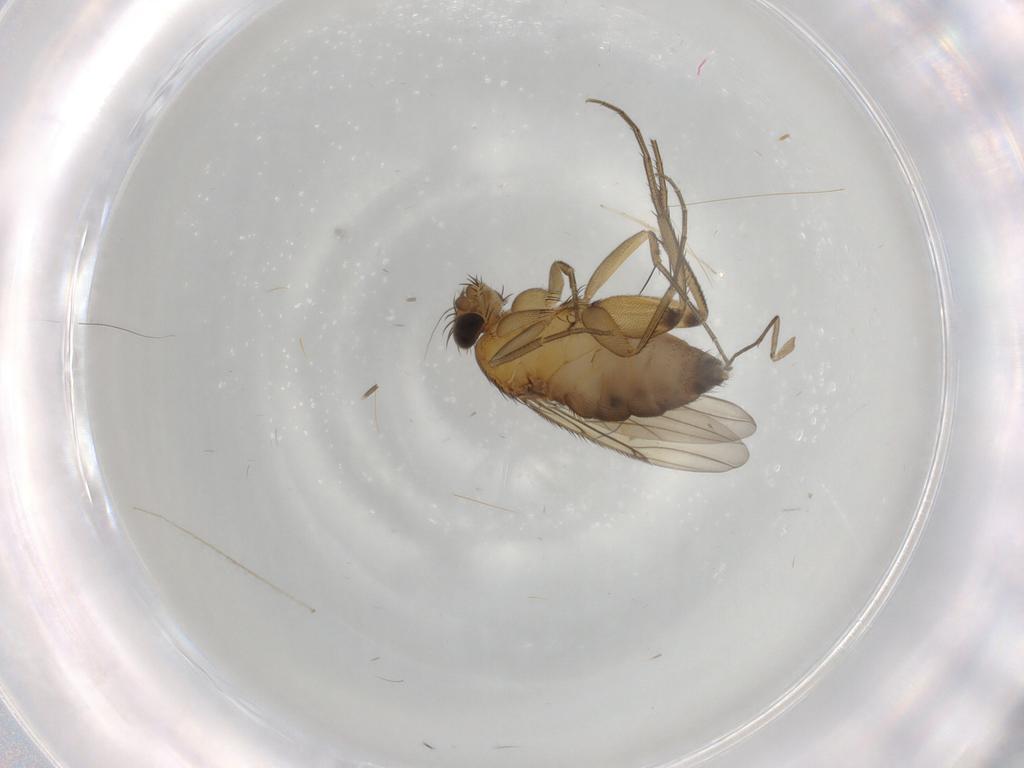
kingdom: Animalia
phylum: Arthropoda
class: Insecta
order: Diptera
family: Phoridae
